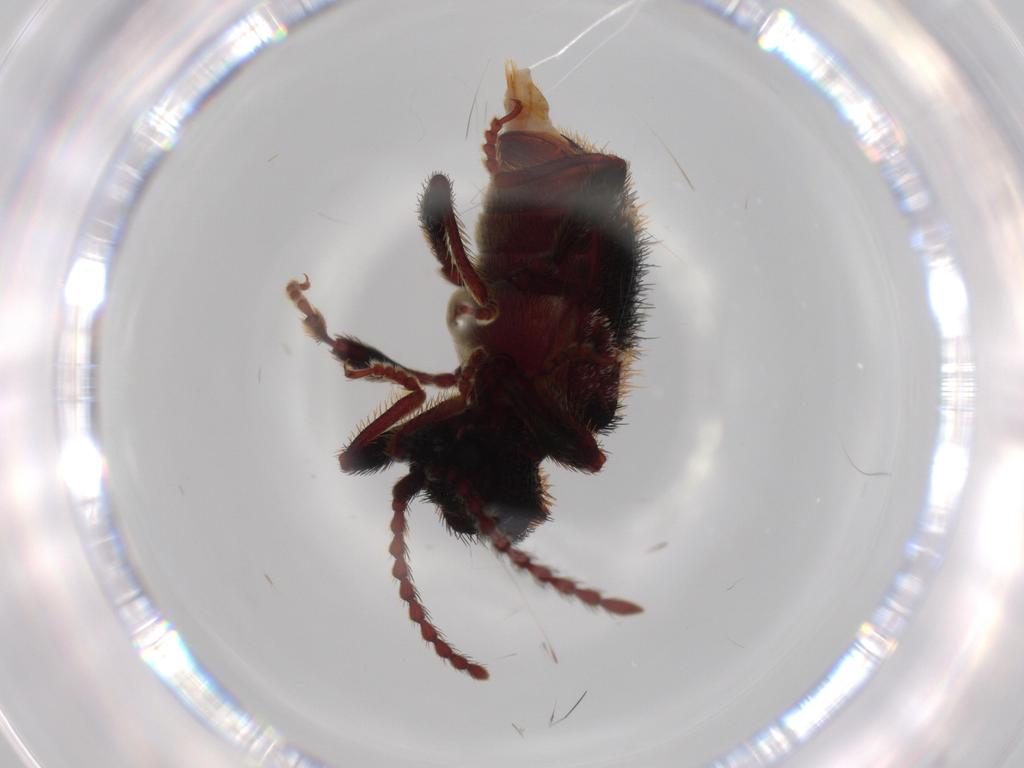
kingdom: Animalia
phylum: Arthropoda
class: Insecta
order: Coleoptera
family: Ptinidae
